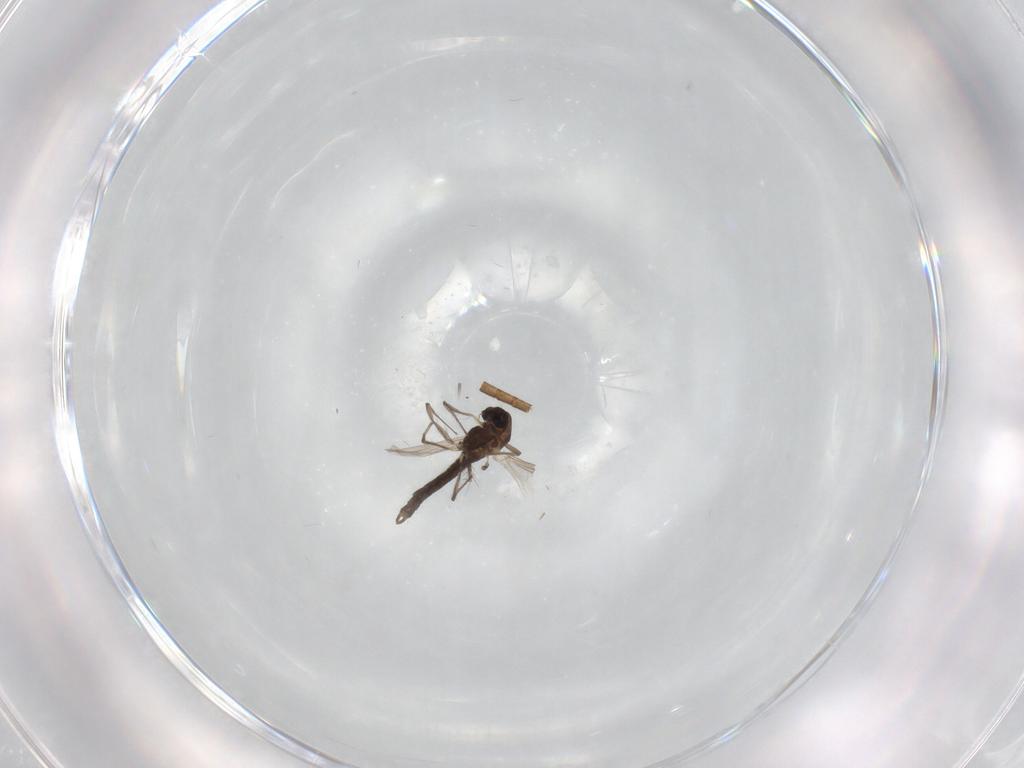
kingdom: Animalia
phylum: Arthropoda
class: Insecta
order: Diptera
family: Chironomidae
